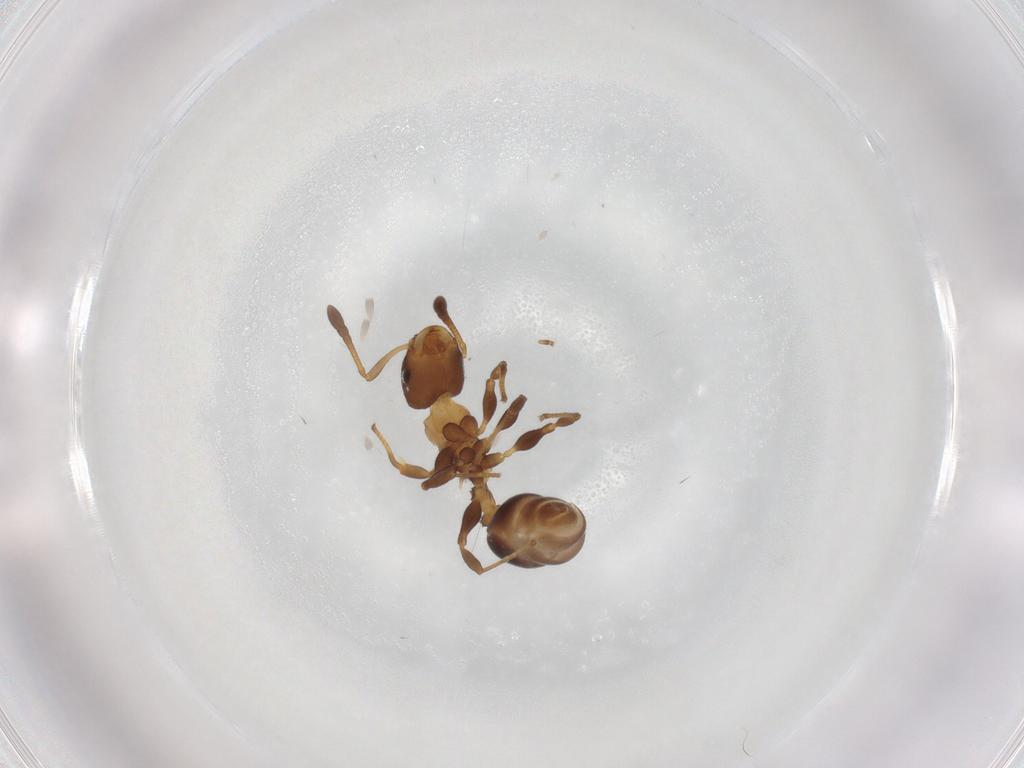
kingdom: Animalia
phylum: Arthropoda
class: Insecta
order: Hymenoptera
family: Formicidae
